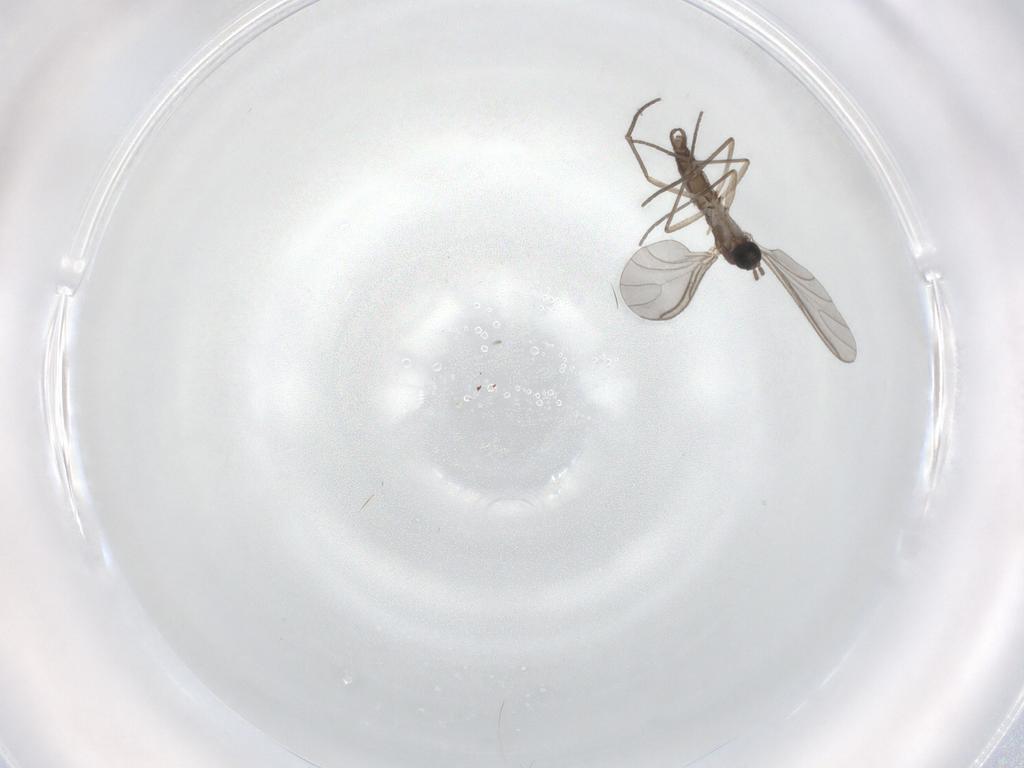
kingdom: Animalia
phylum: Arthropoda
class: Insecta
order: Diptera
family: Sciaridae
